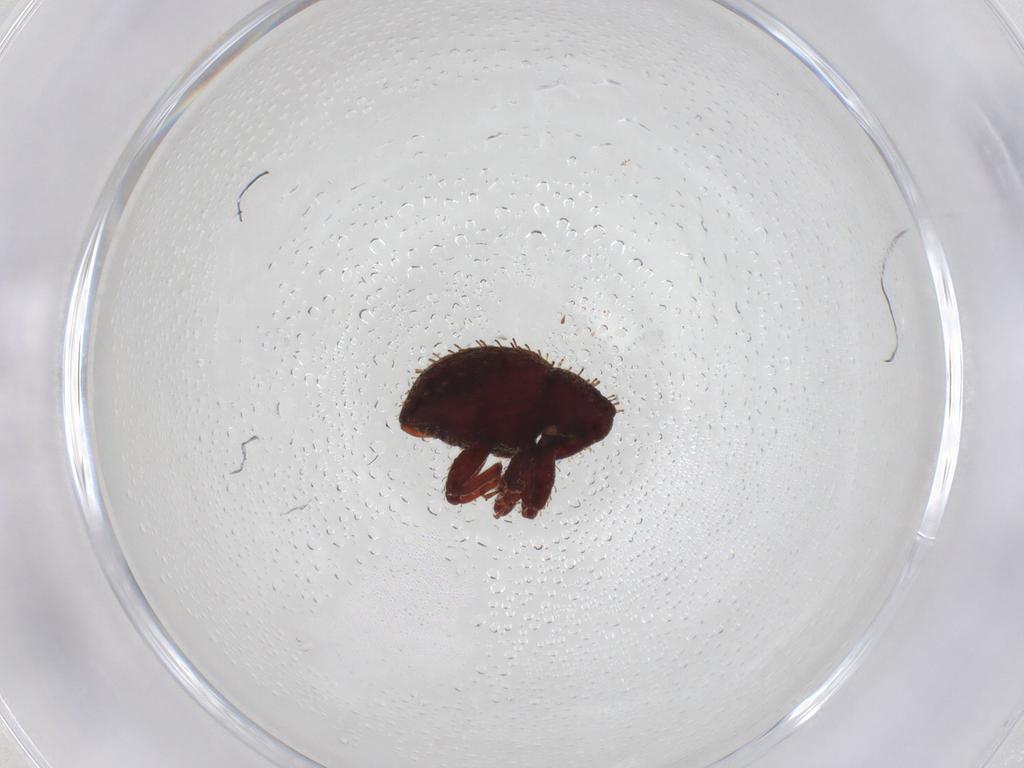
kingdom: Animalia
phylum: Arthropoda
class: Insecta
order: Coleoptera
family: Curculionidae
